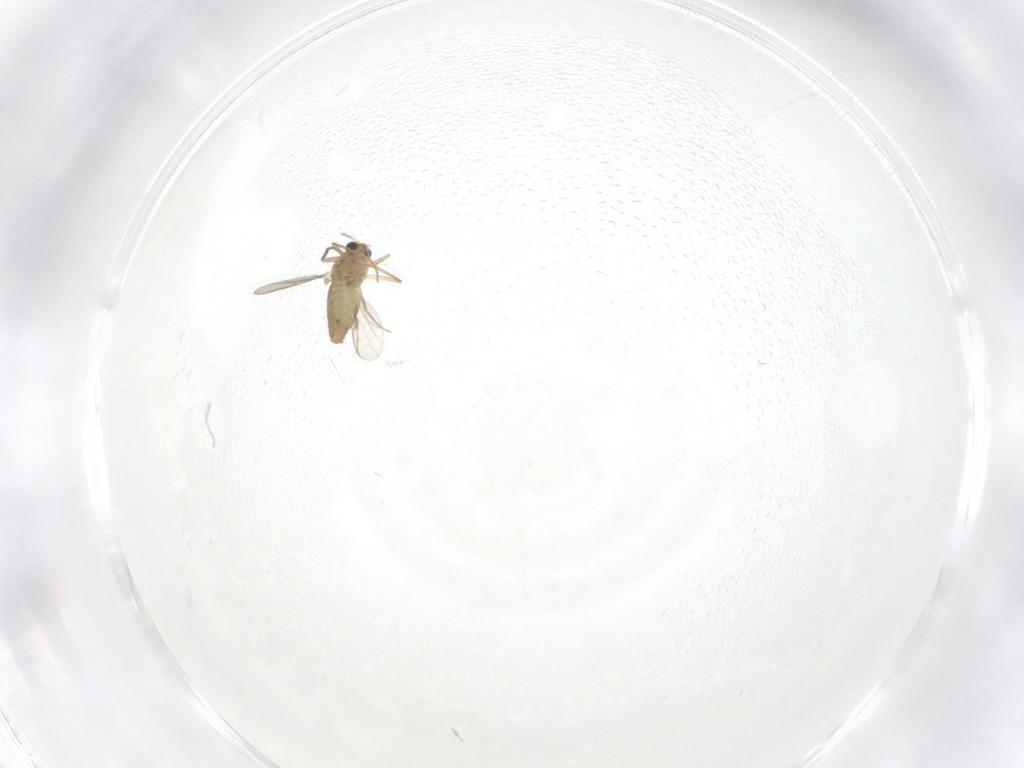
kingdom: Animalia
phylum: Arthropoda
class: Insecta
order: Diptera
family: Chironomidae
